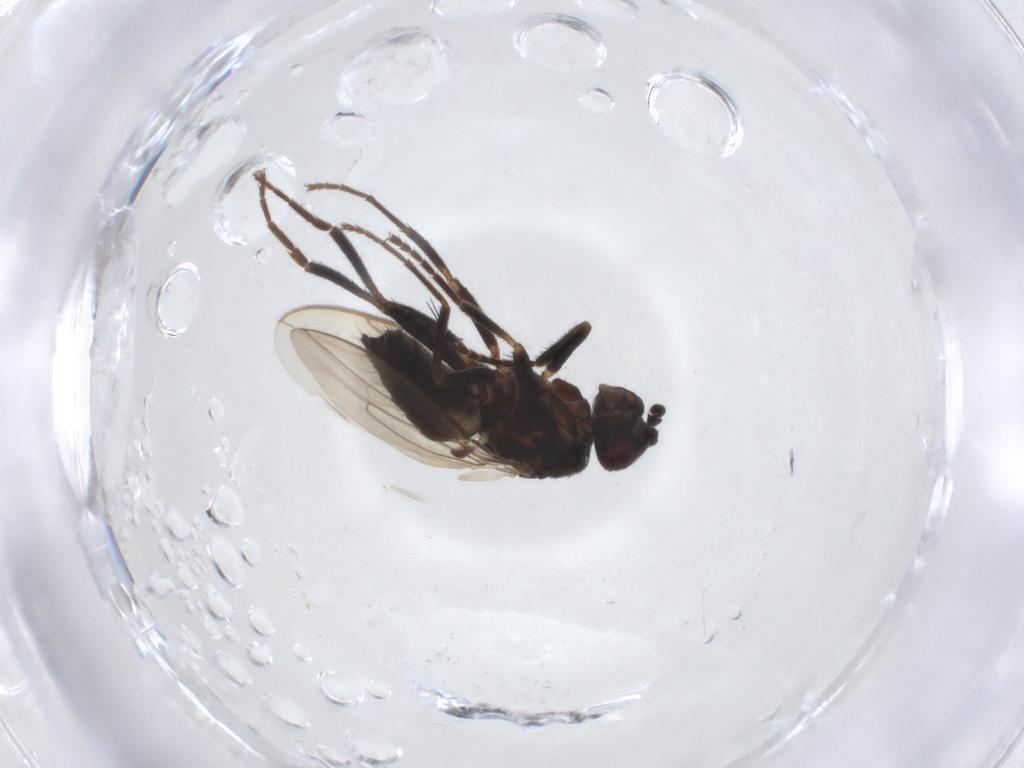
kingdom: Animalia
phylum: Arthropoda
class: Insecta
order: Diptera
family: Sphaeroceridae
